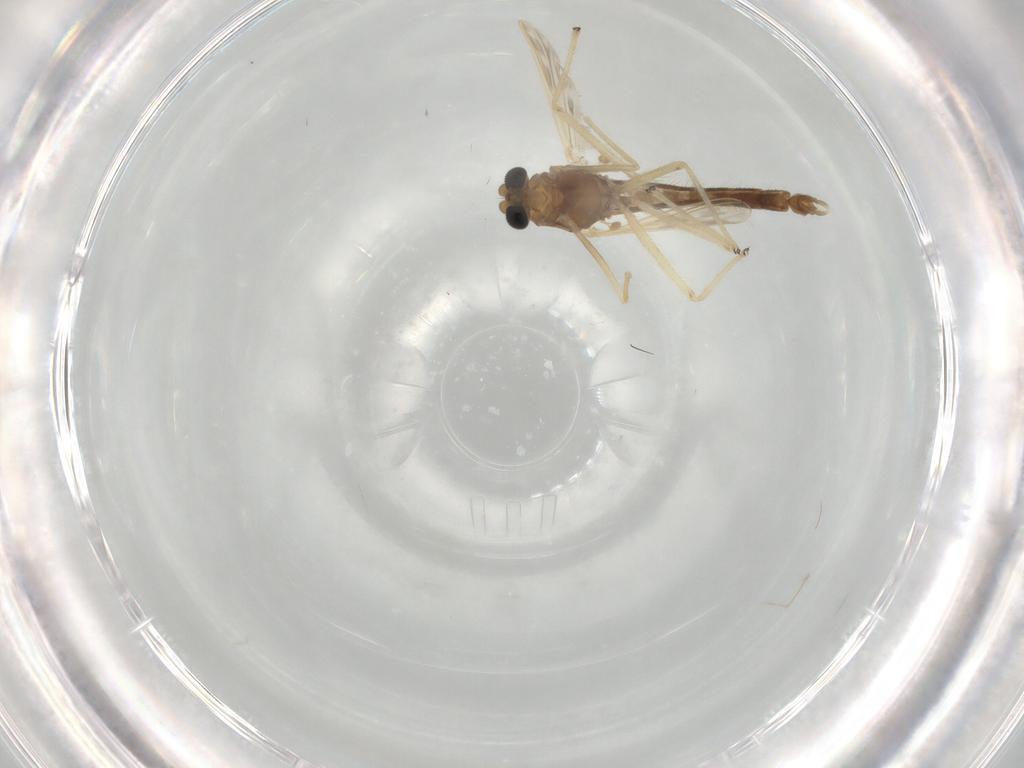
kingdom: Animalia
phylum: Arthropoda
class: Insecta
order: Diptera
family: Chironomidae
